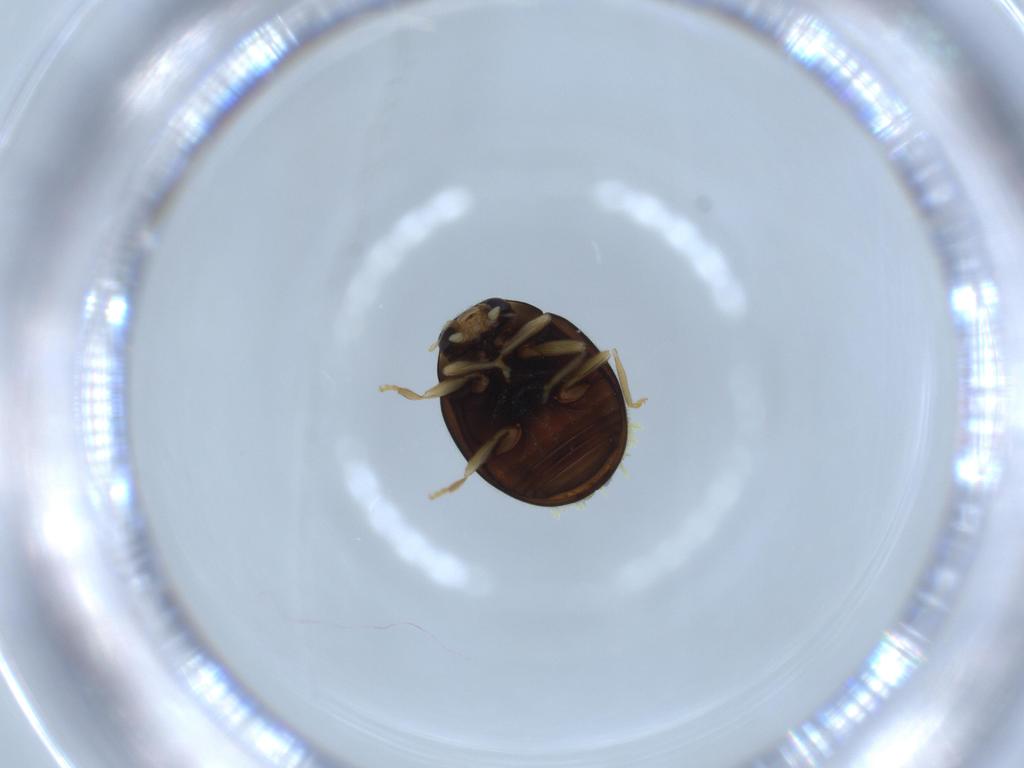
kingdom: Animalia
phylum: Arthropoda
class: Insecta
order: Coleoptera
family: Coccinellidae
